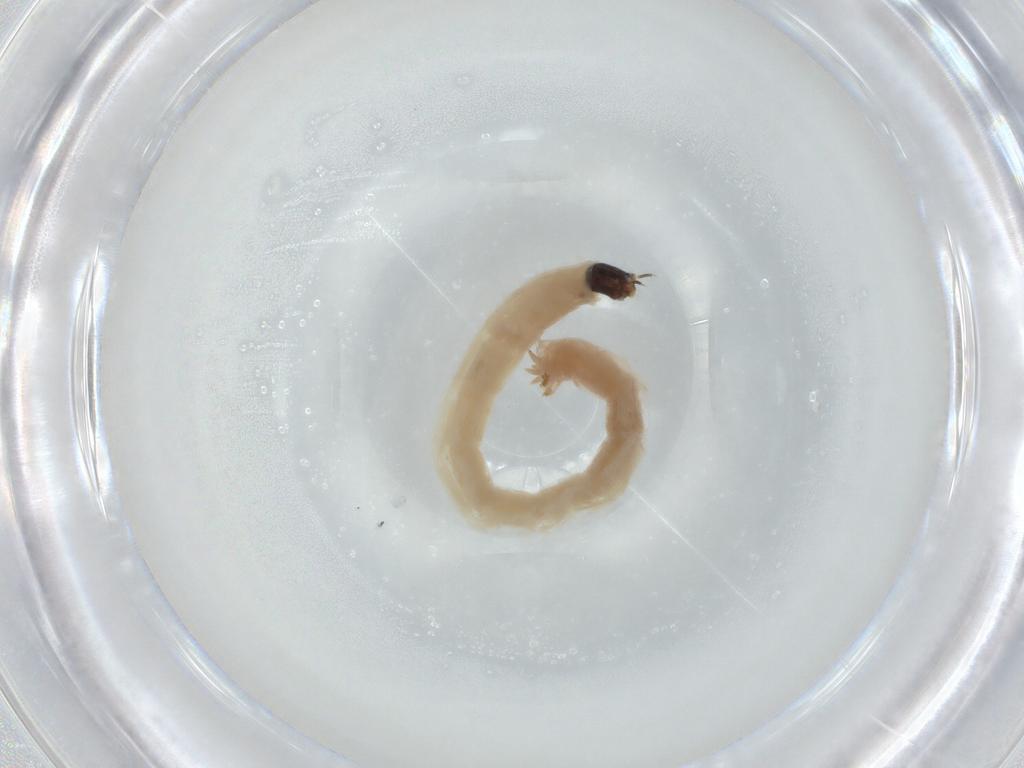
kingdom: Animalia
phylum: Arthropoda
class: Insecta
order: Diptera
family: Chironomidae
